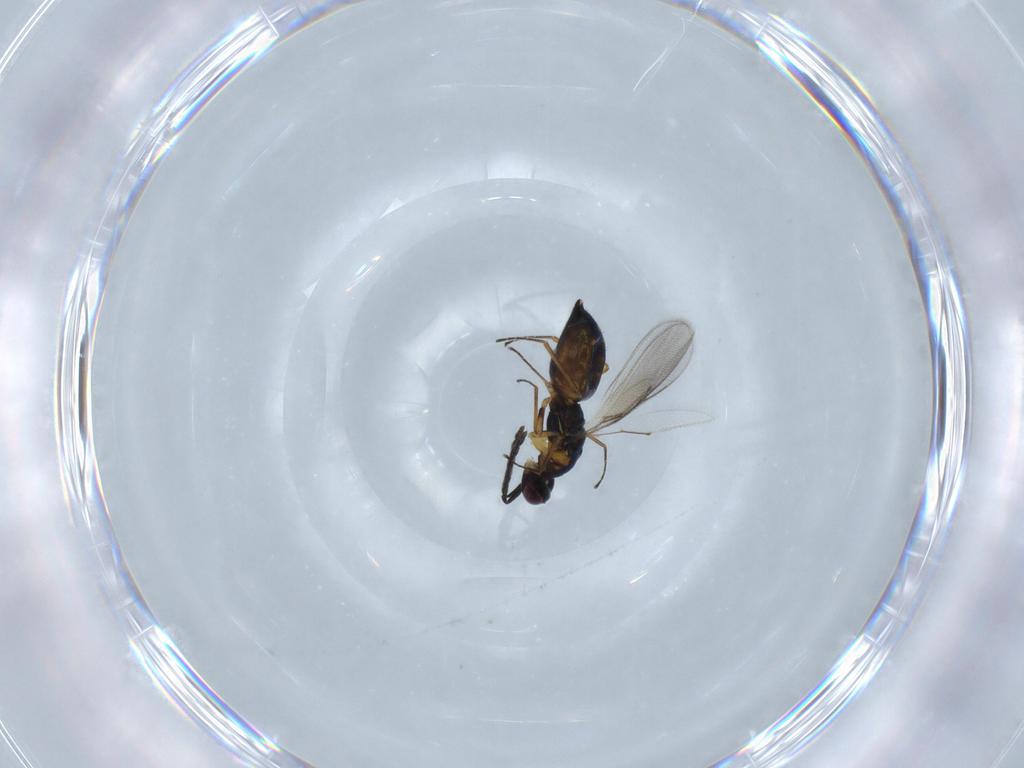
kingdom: Animalia
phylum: Arthropoda
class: Insecta
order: Hymenoptera
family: Eulophidae
